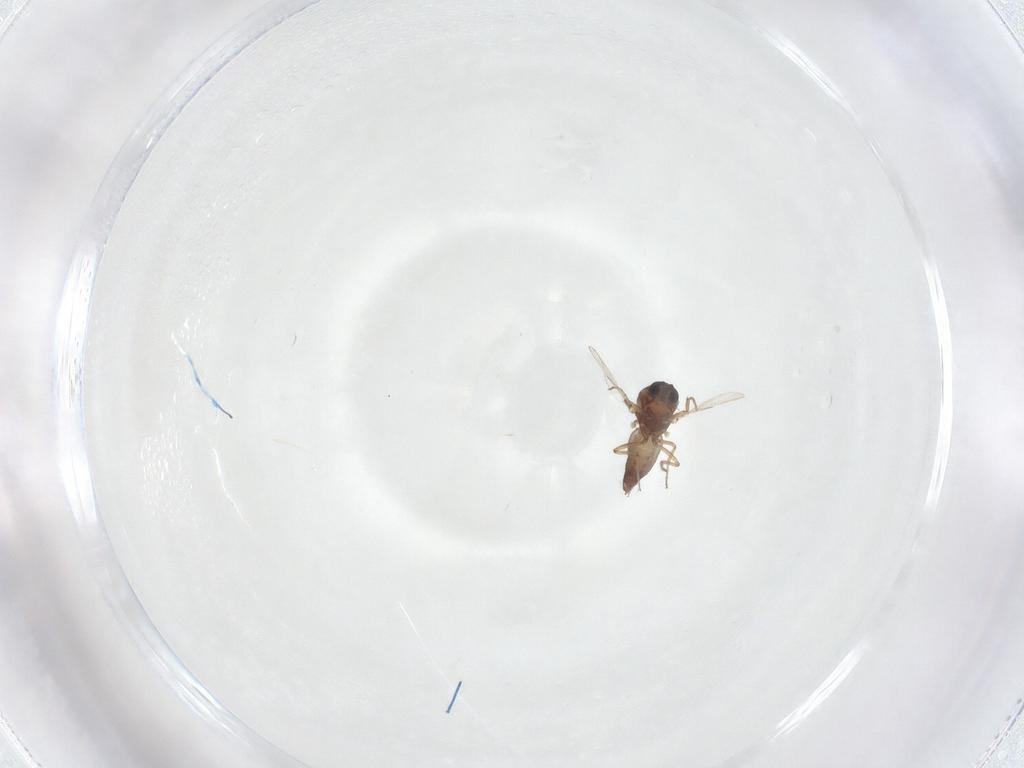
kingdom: Animalia
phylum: Arthropoda
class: Insecta
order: Diptera
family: Ceratopogonidae
